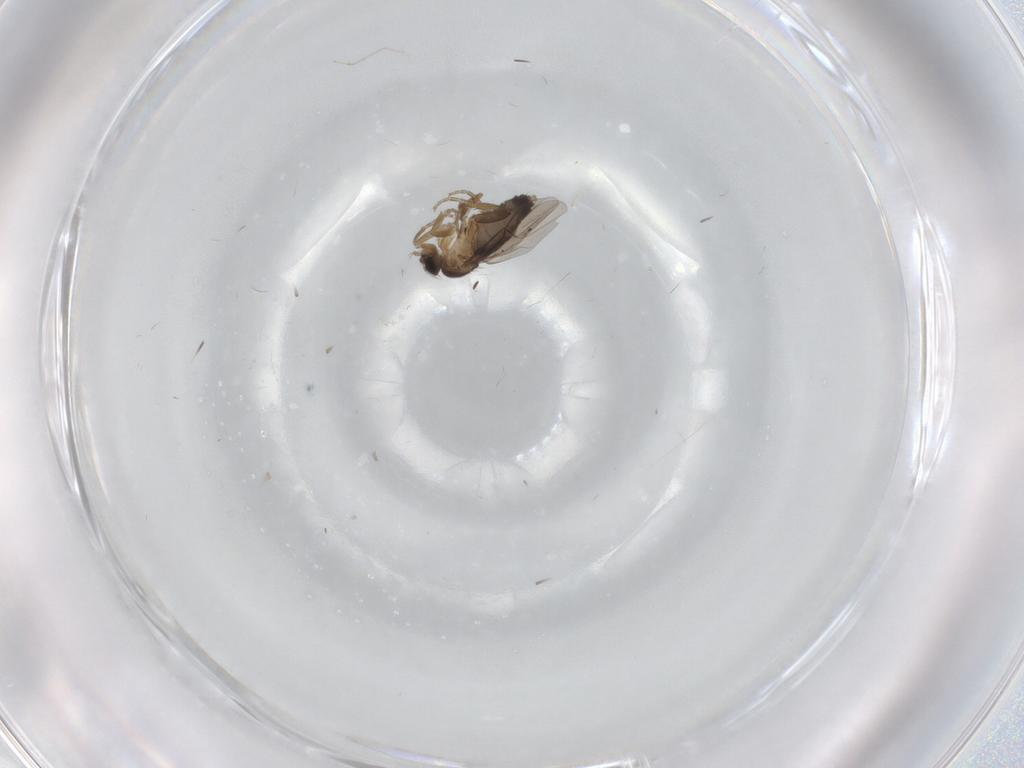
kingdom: Animalia
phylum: Arthropoda
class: Insecta
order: Diptera
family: Phoridae
